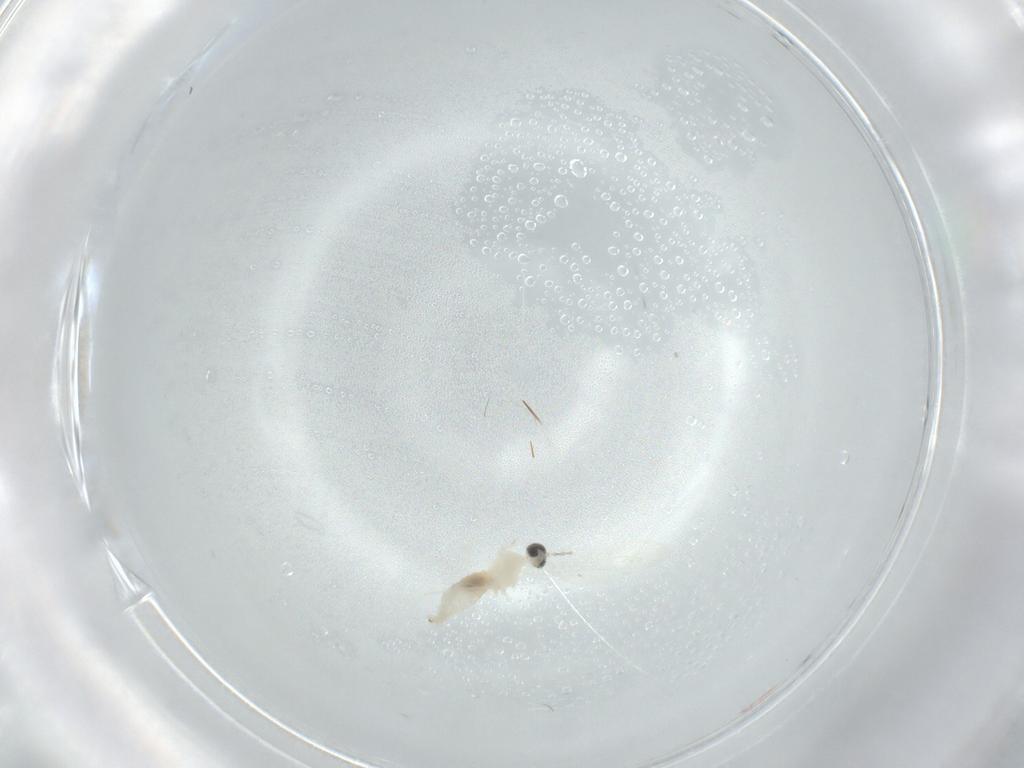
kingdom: Animalia
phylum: Arthropoda
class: Insecta
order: Diptera
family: Cecidomyiidae
